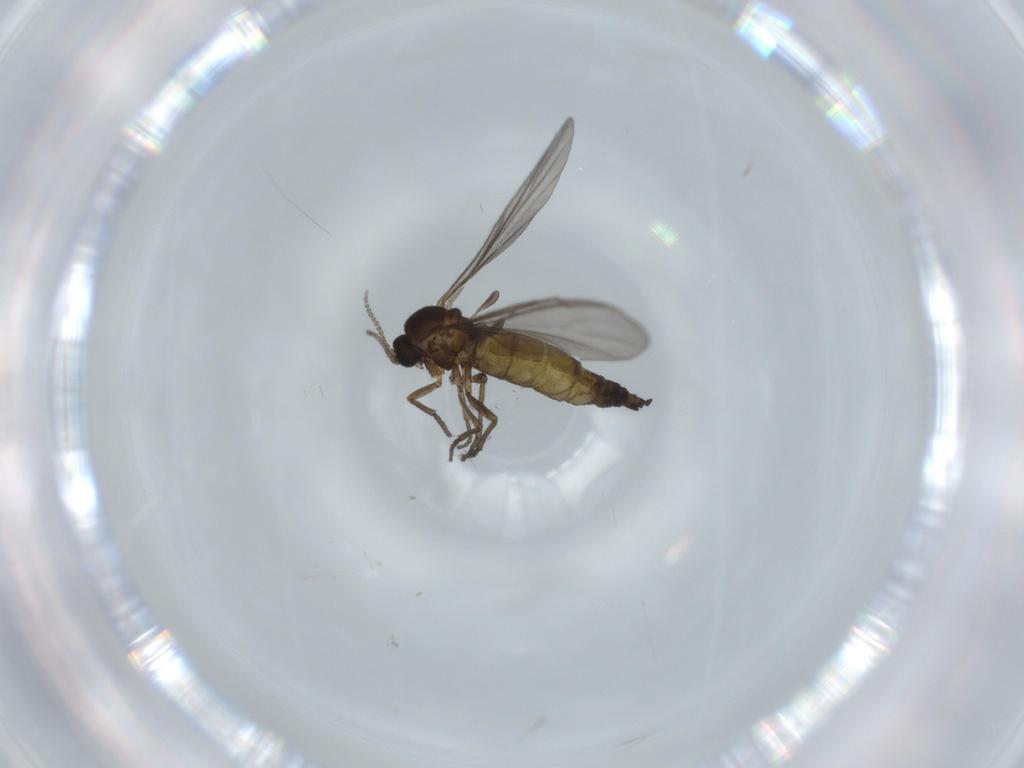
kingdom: Animalia
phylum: Arthropoda
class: Insecta
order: Diptera
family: Sciaridae
